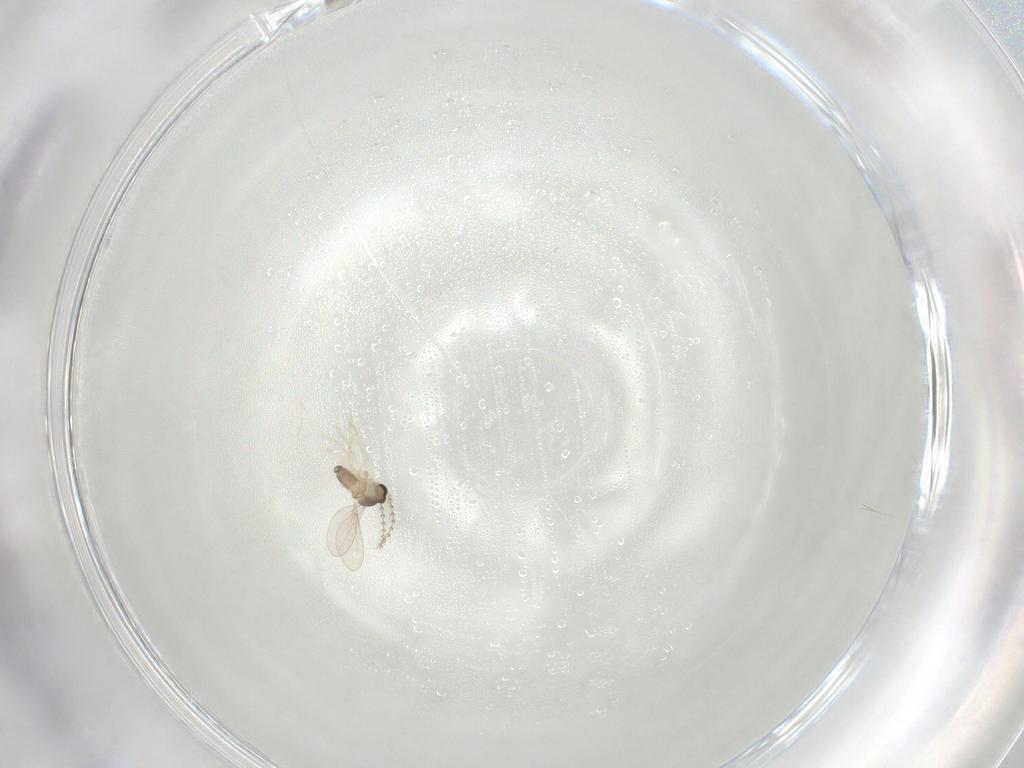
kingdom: Animalia
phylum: Arthropoda
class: Insecta
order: Diptera
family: Cecidomyiidae
